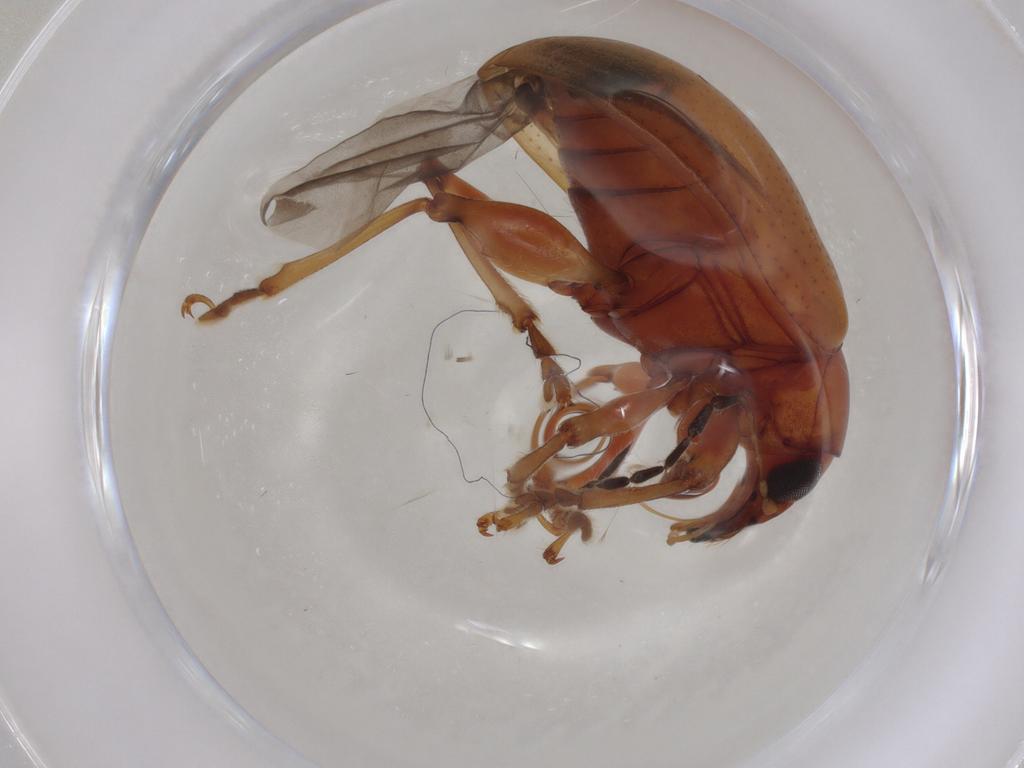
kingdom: Animalia
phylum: Arthropoda
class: Insecta
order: Coleoptera
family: Chrysomelidae
